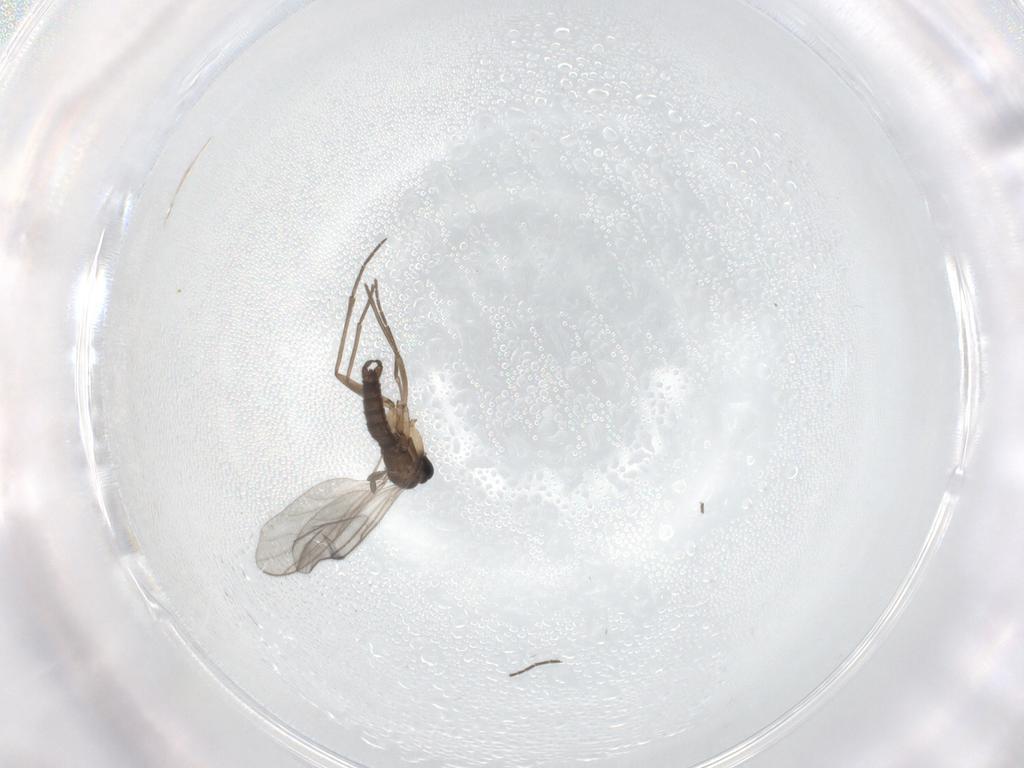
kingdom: Animalia
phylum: Arthropoda
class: Insecta
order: Diptera
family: Sciaridae
